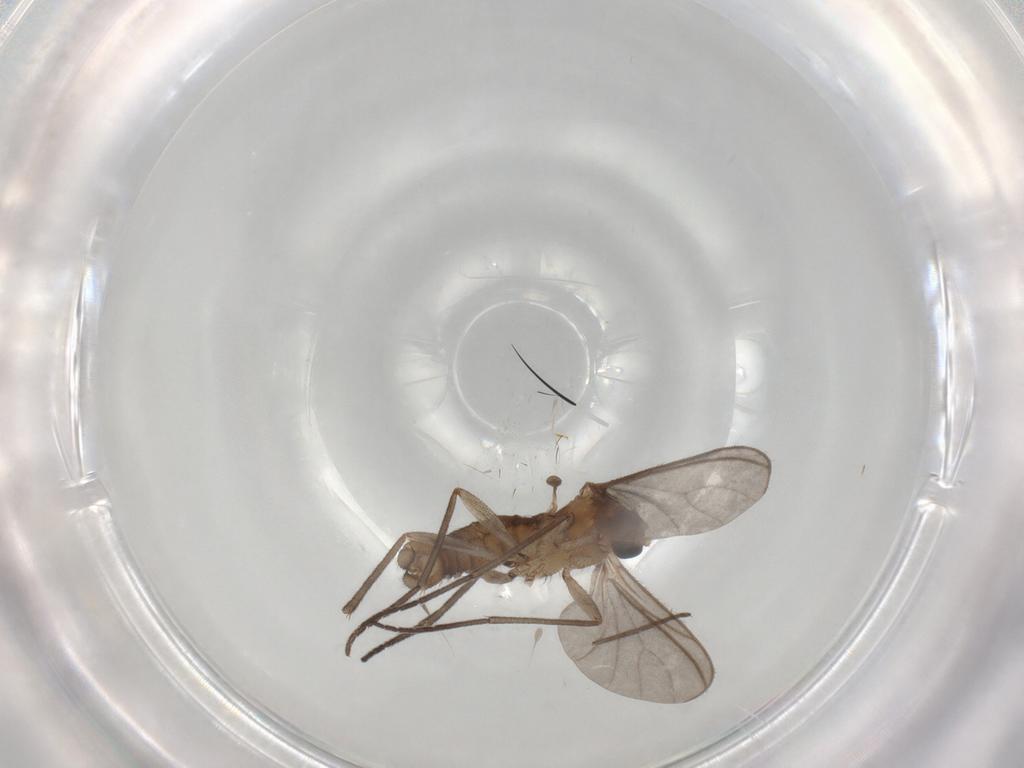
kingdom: Animalia
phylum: Arthropoda
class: Insecta
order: Diptera
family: Sciaridae
